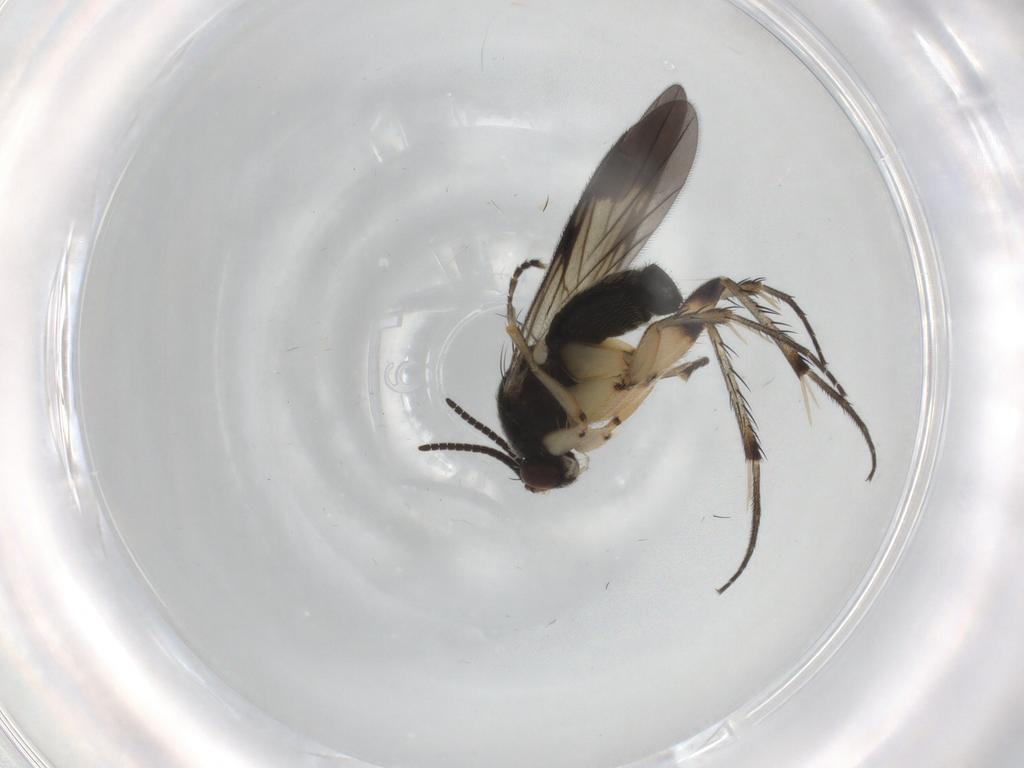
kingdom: Animalia
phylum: Arthropoda
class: Insecta
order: Diptera
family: Mycetophilidae
